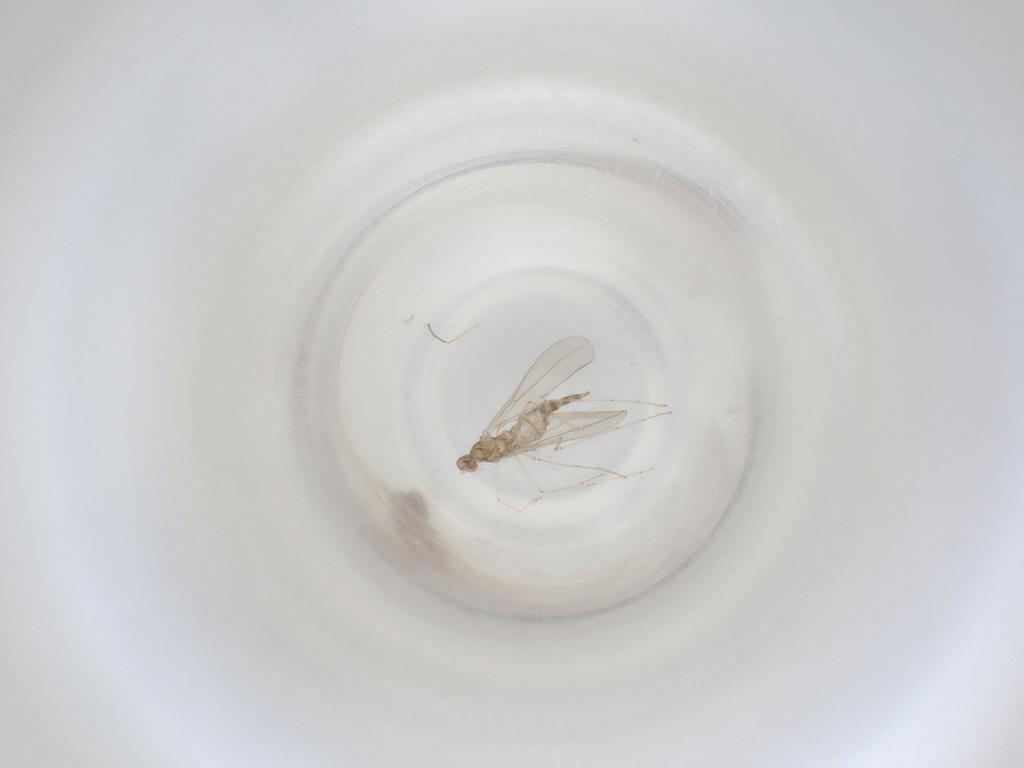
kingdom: Animalia
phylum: Arthropoda
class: Insecta
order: Diptera
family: Cecidomyiidae
